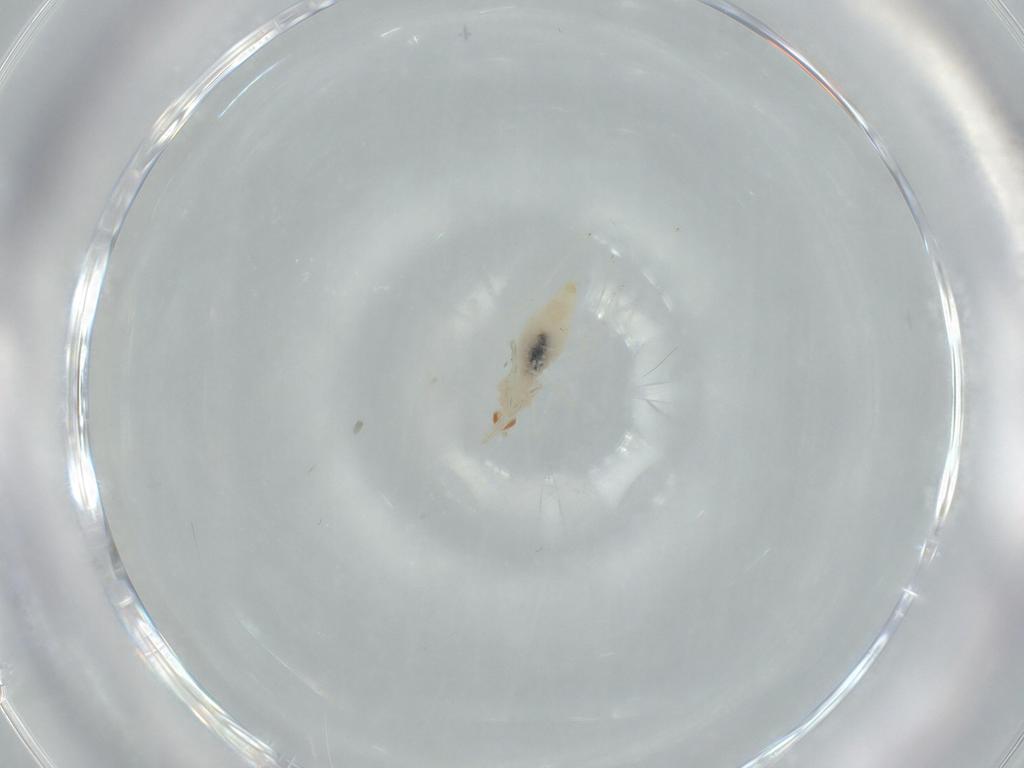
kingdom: Animalia
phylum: Arthropoda
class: Insecta
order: Diptera
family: Cecidomyiidae
